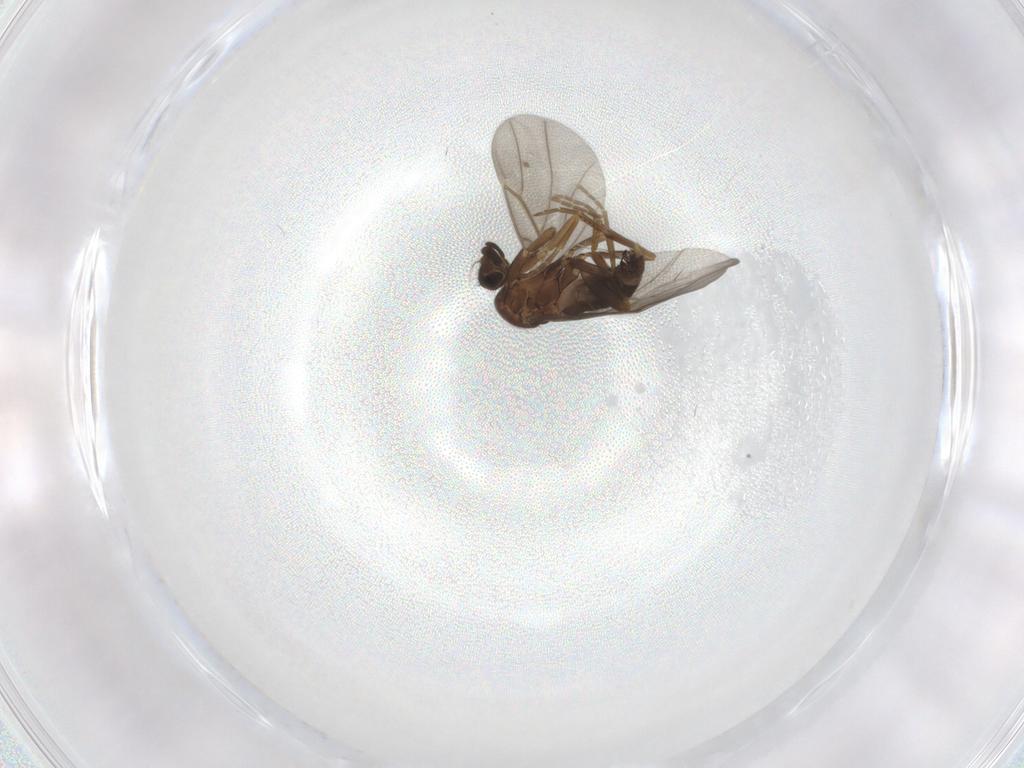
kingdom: Animalia
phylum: Arthropoda
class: Insecta
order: Diptera
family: Phoridae
